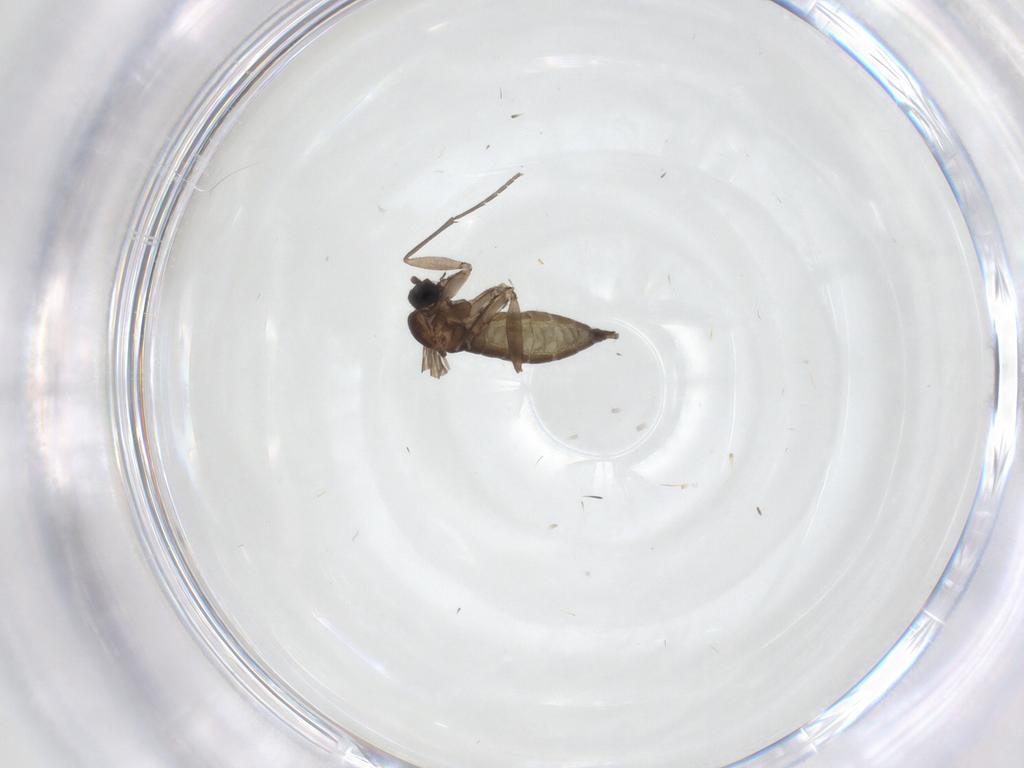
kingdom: Animalia
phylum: Arthropoda
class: Insecta
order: Diptera
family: Sciaridae
